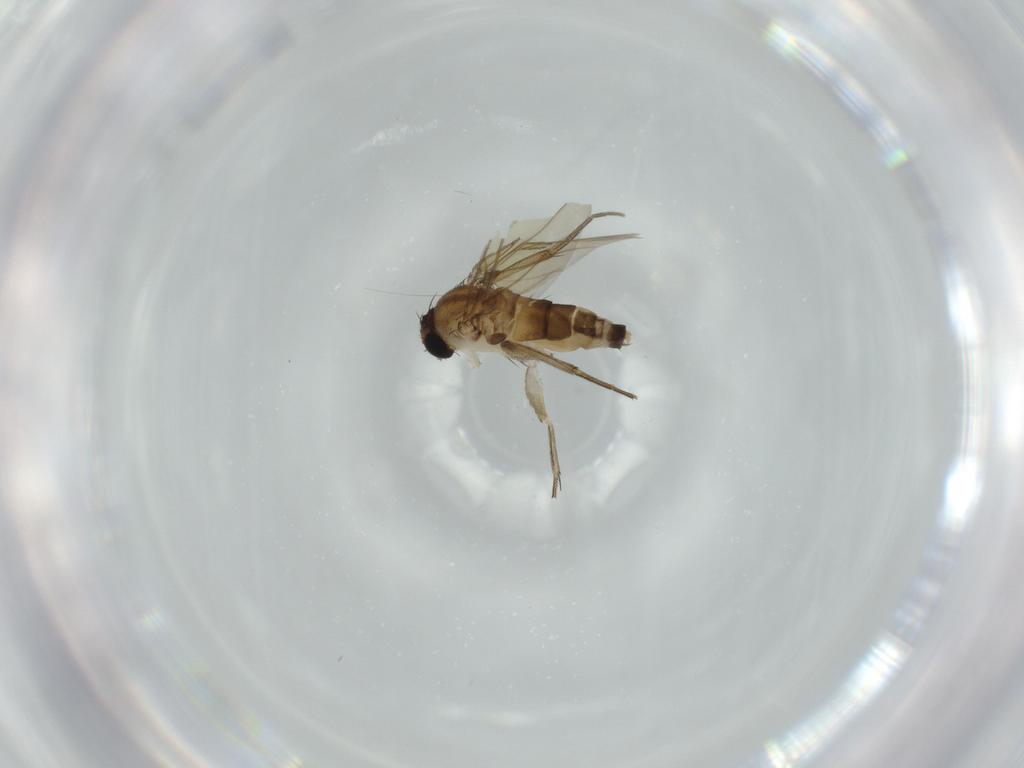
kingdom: Animalia
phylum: Arthropoda
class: Insecta
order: Diptera
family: Phoridae
